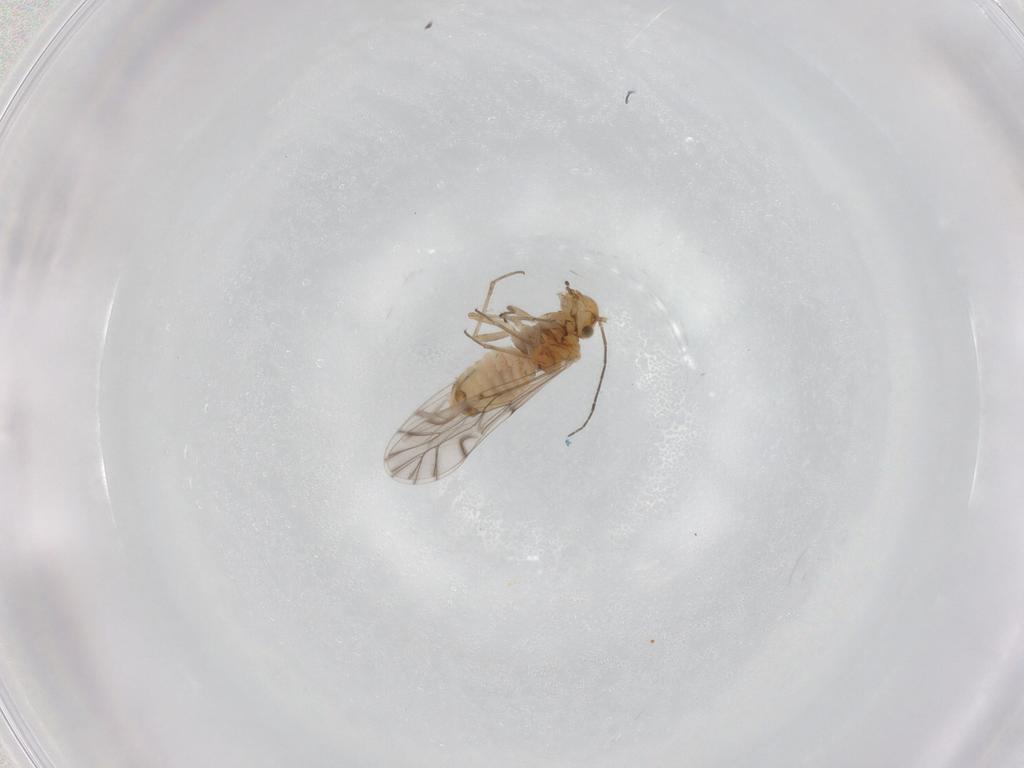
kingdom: Animalia
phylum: Arthropoda
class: Insecta
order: Psocodea
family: Lachesillidae
